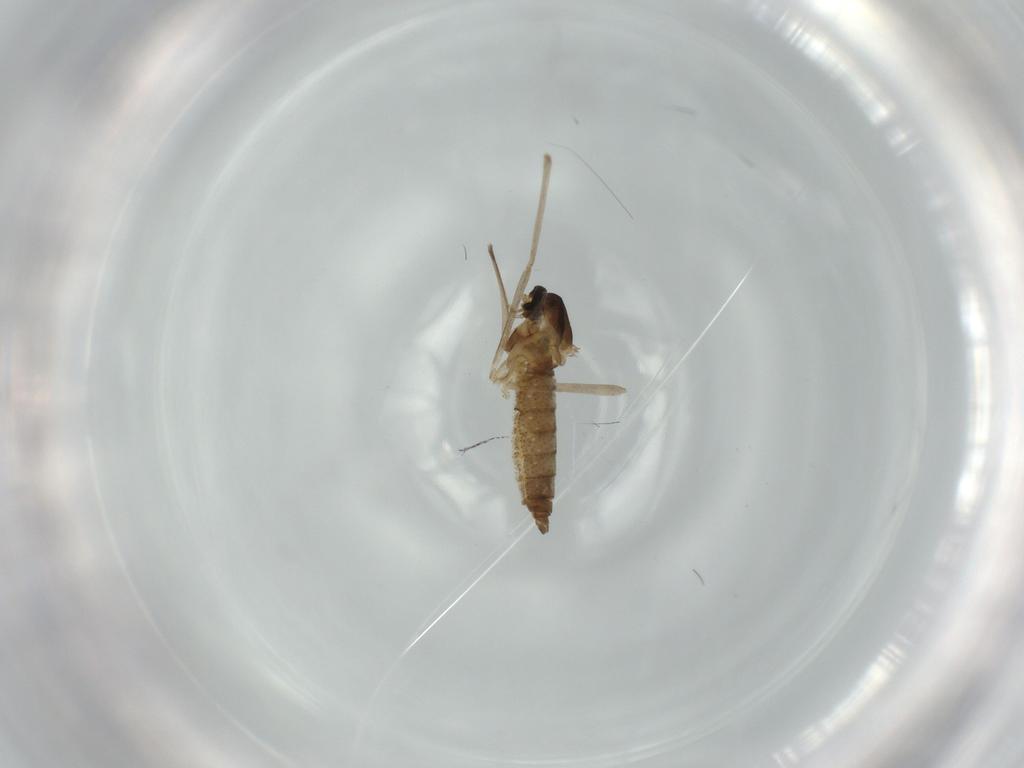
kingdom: Animalia
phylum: Arthropoda
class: Insecta
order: Diptera
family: Cecidomyiidae
